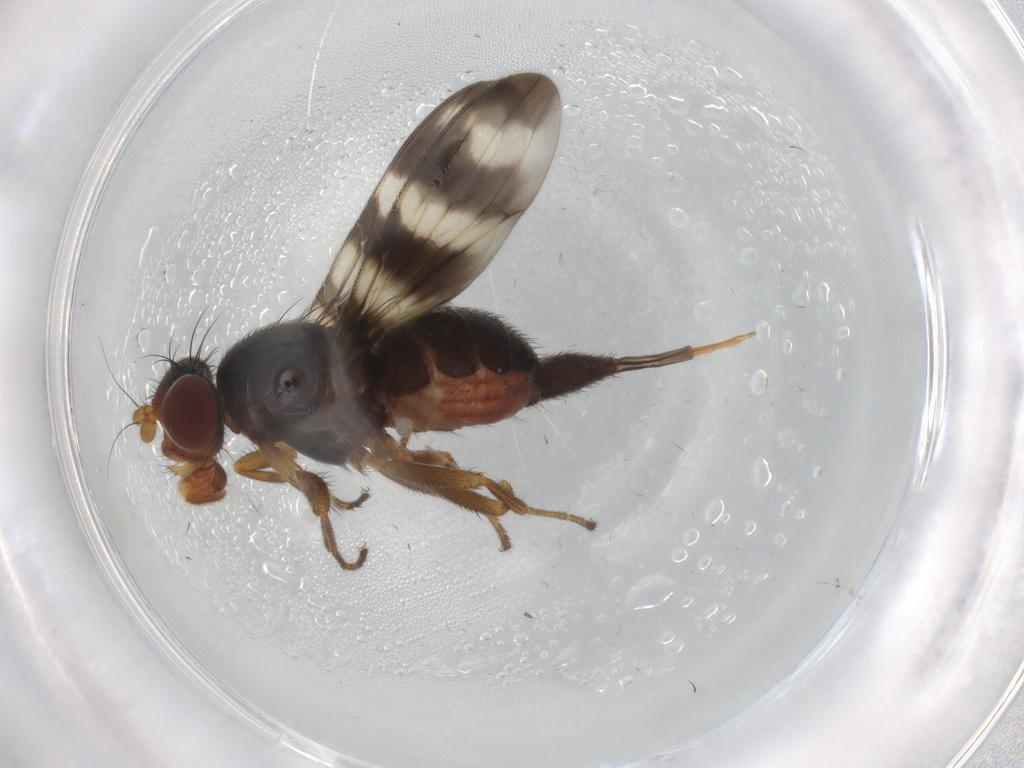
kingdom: Animalia
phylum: Arthropoda
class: Insecta
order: Diptera
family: Ulidiidae
